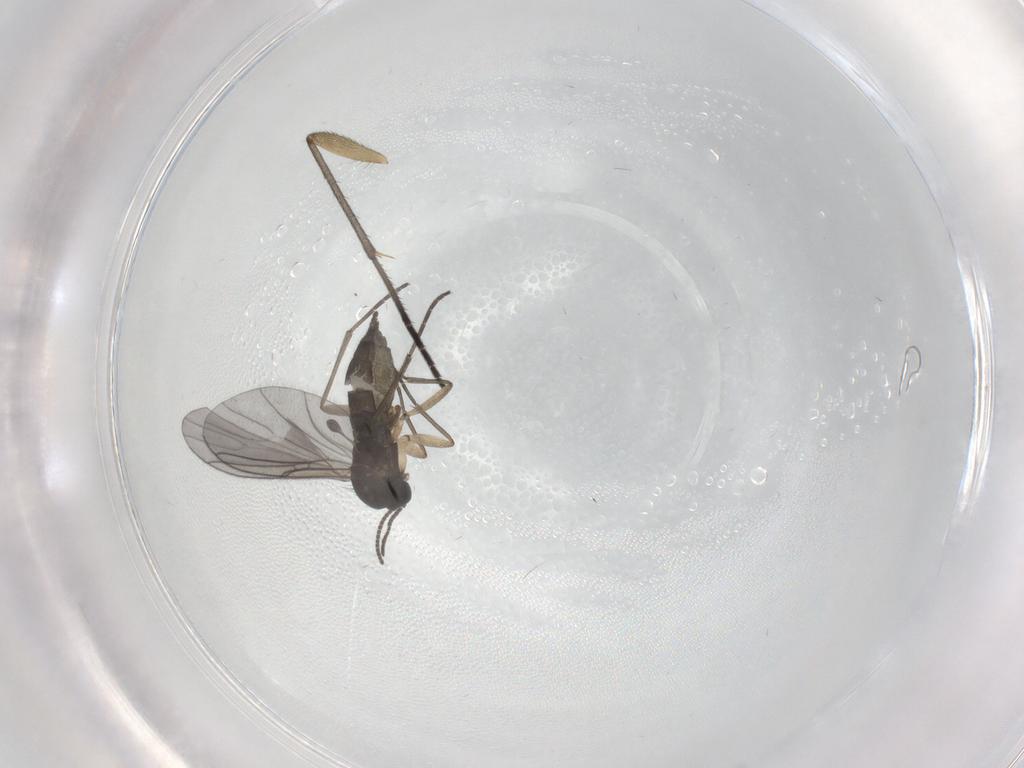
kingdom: Animalia
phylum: Arthropoda
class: Insecta
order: Diptera
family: Sciaridae
